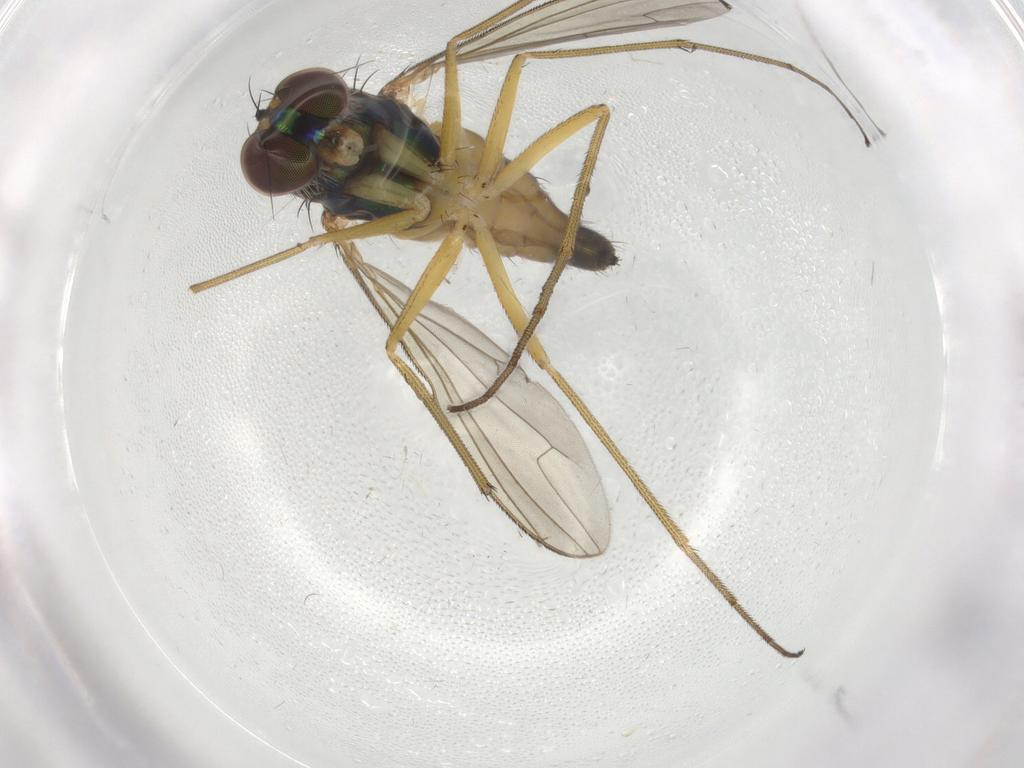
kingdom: Animalia
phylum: Arthropoda
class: Insecta
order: Diptera
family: Dolichopodidae
